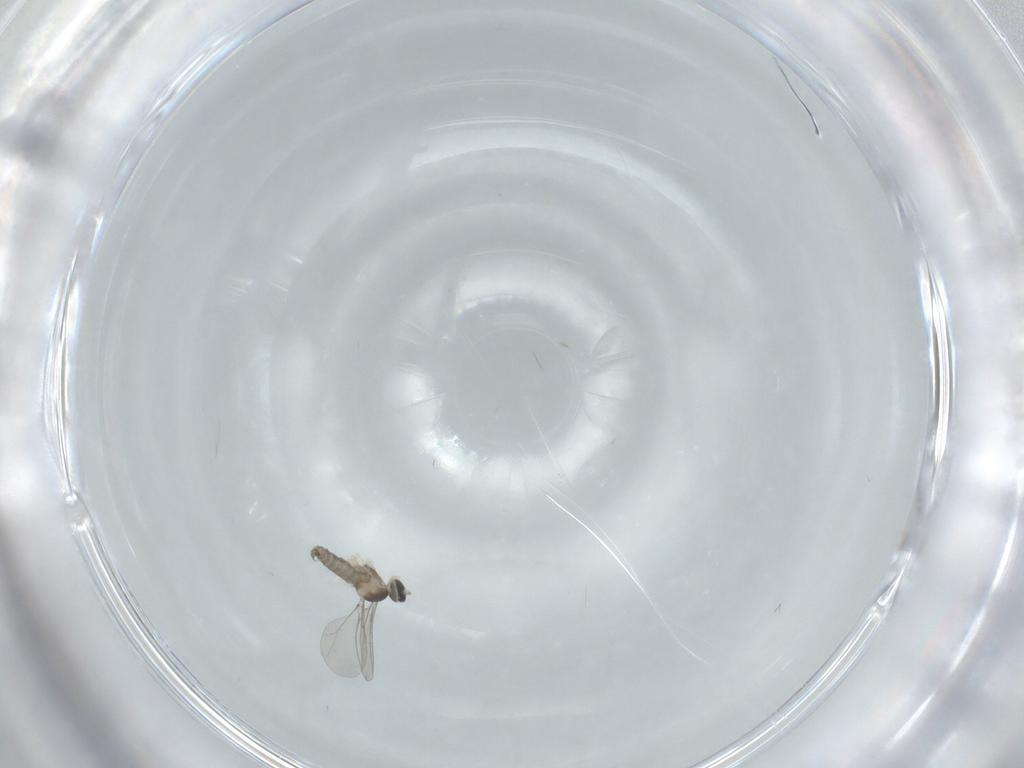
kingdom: Animalia
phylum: Arthropoda
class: Insecta
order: Diptera
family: Cecidomyiidae
